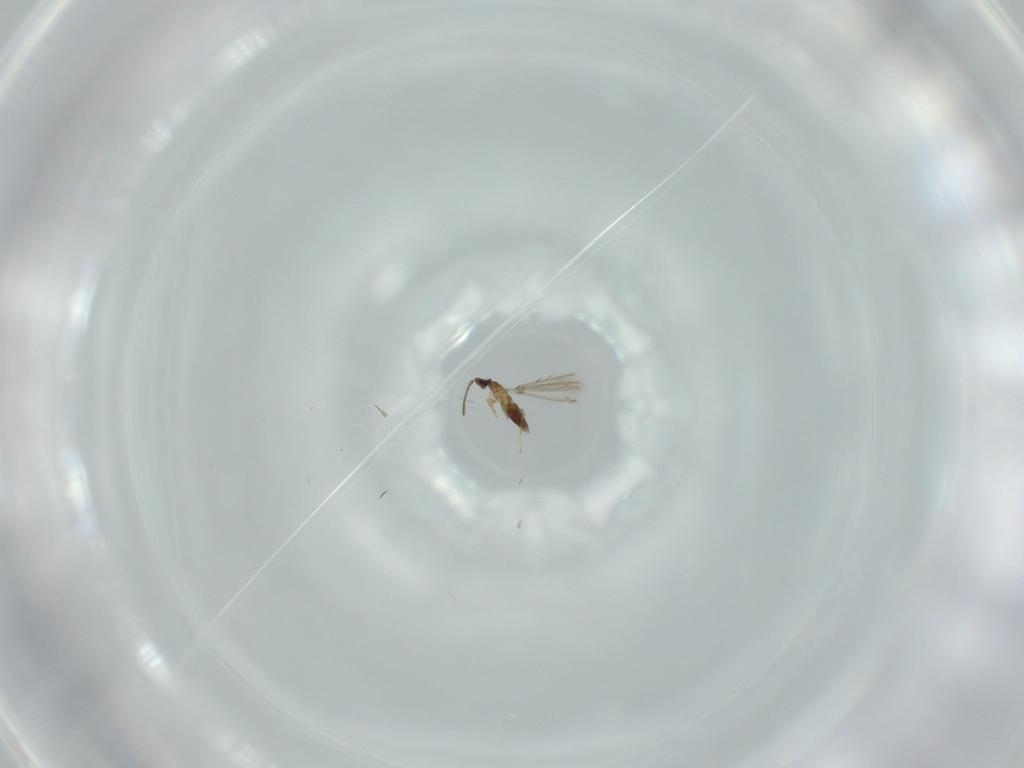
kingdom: Animalia
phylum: Arthropoda
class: Insecta
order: Hymenoptera
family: Mymaridae
